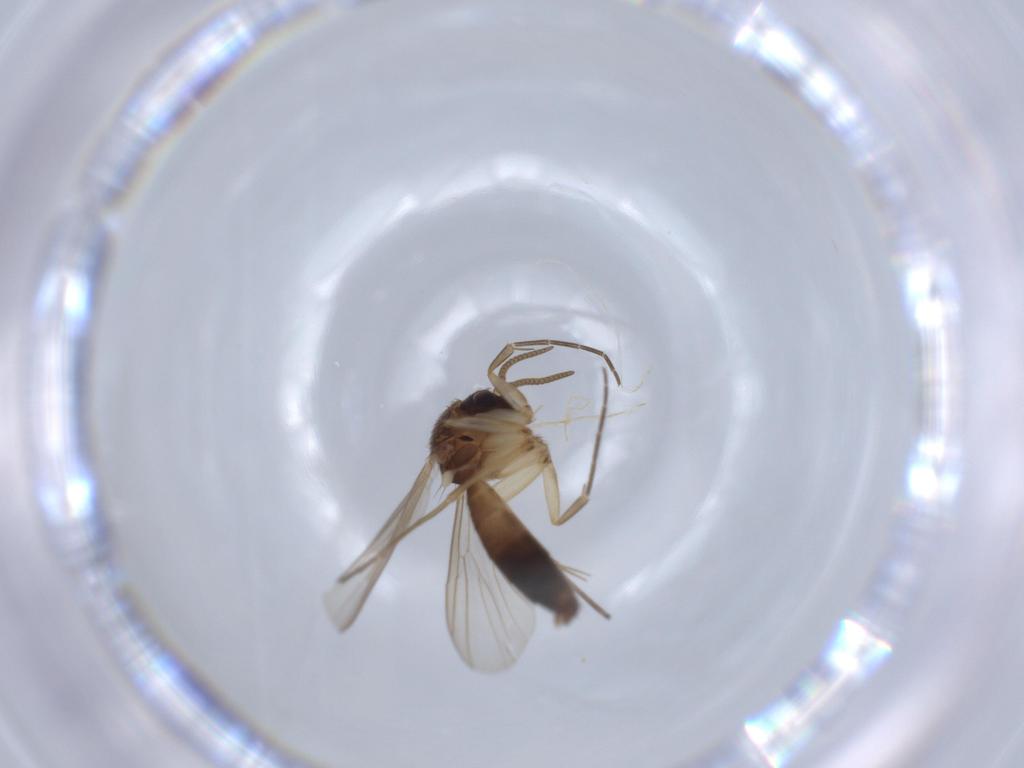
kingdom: Animalia
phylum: Arthropoda
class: Insecta
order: Diptera
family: Mycetophilidae
